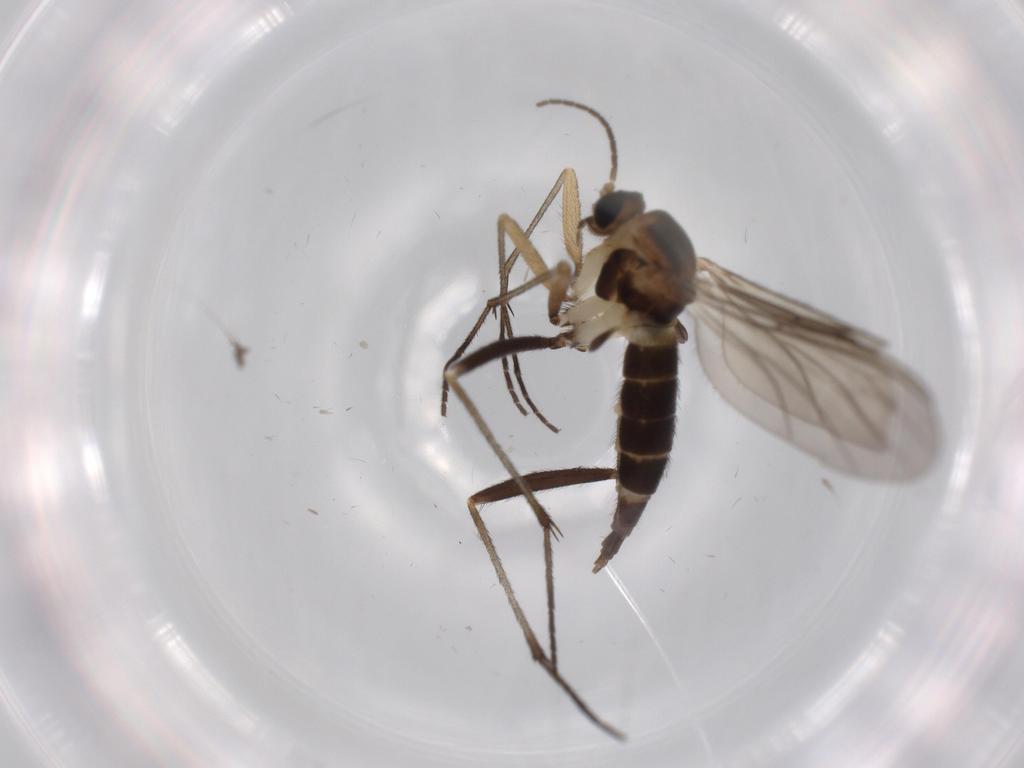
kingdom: Animalia
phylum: Arthropoda
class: Insecta
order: Diptera
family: Sciaridae
